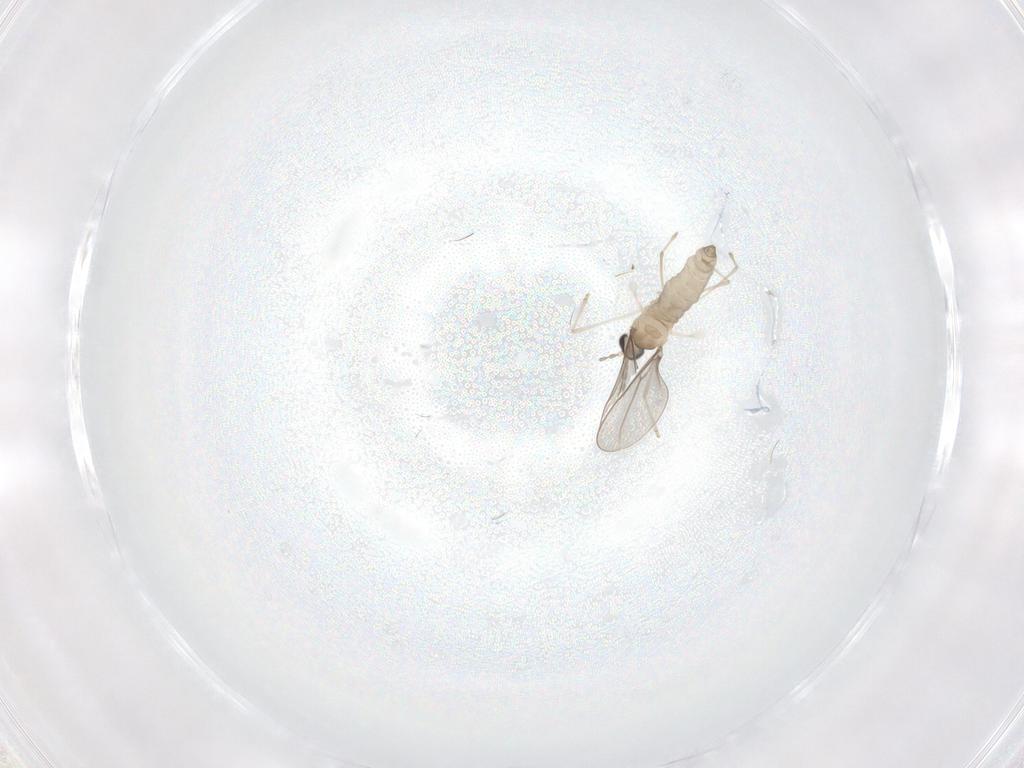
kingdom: Animalia
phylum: Arthropoda
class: Insecta
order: Diptera
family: Cecidomyiidae
